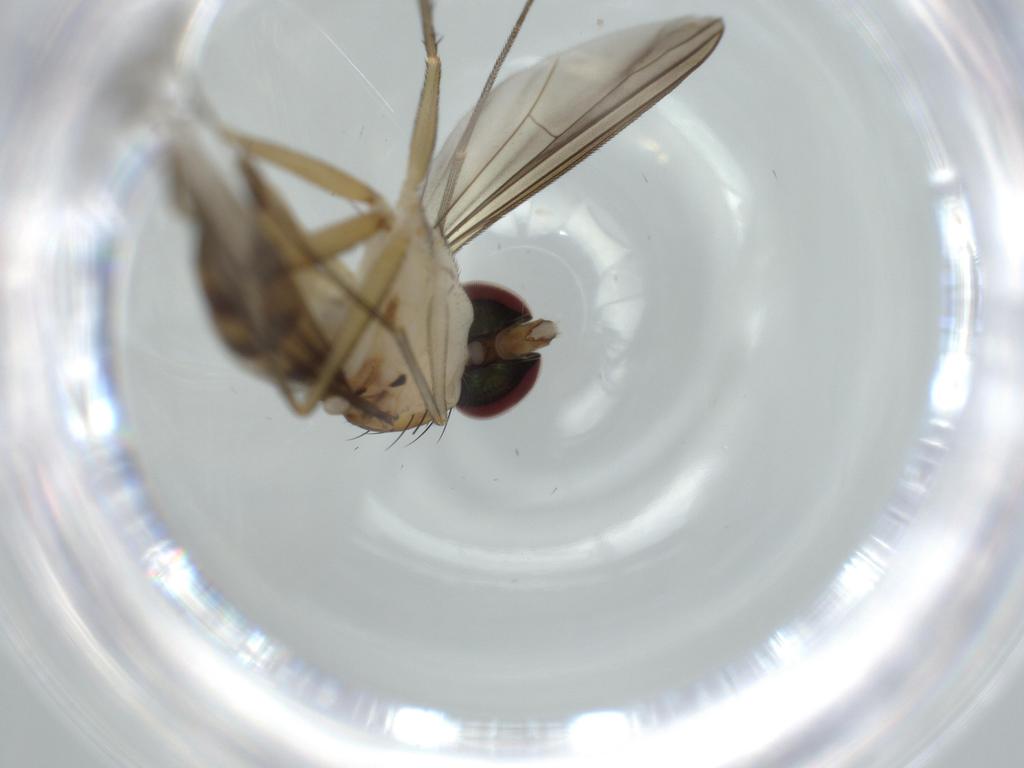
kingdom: Animalia
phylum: Arthropoda
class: Insecta
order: Diptera
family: Dolichopodidae
